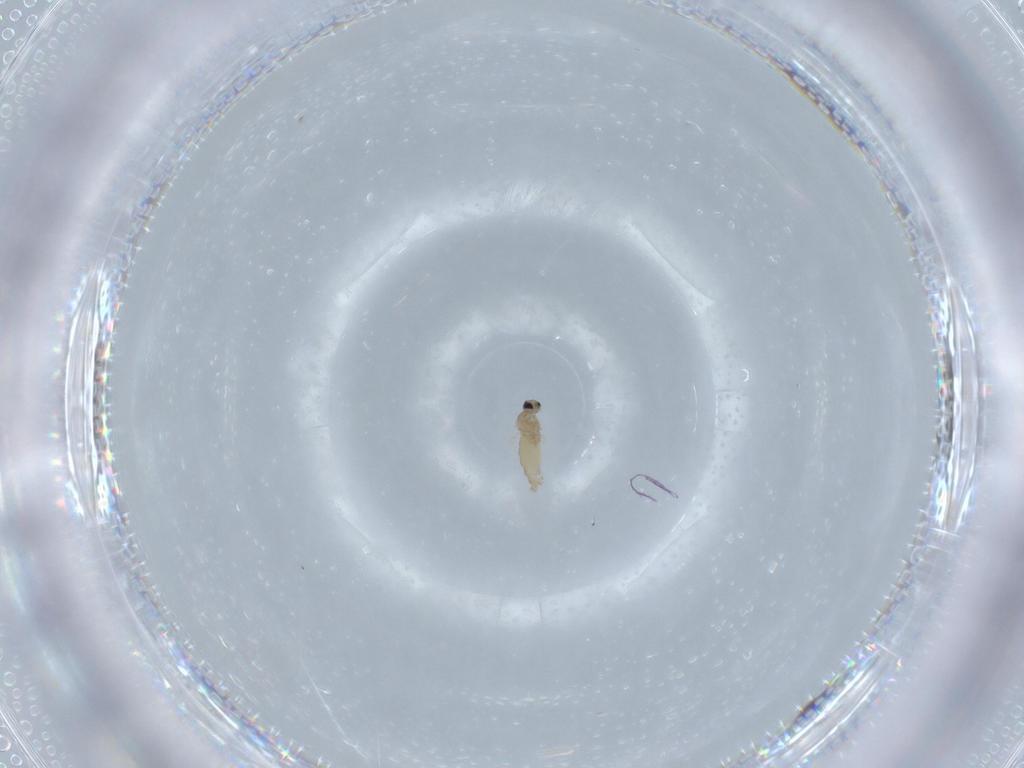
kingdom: Animalia
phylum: Arthropoda
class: Insecta
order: Diptera
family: Cecidomyiidae
